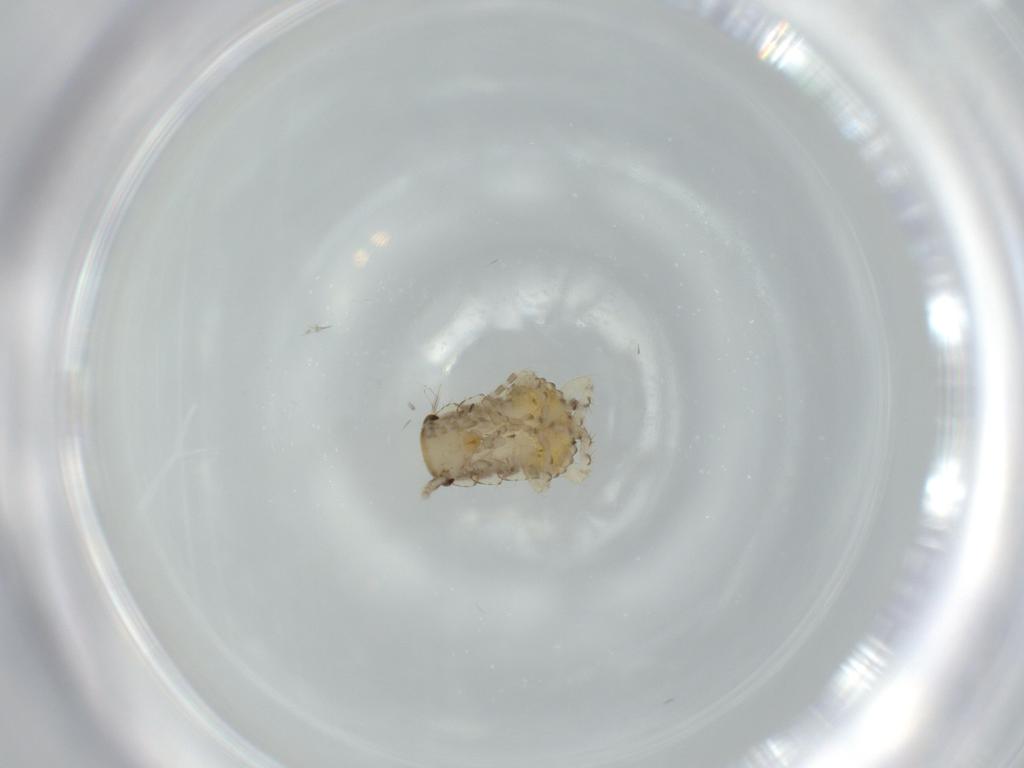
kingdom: Animalia
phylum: Arthropoda
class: Insecta
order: Blattodea
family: Ectobiidae
